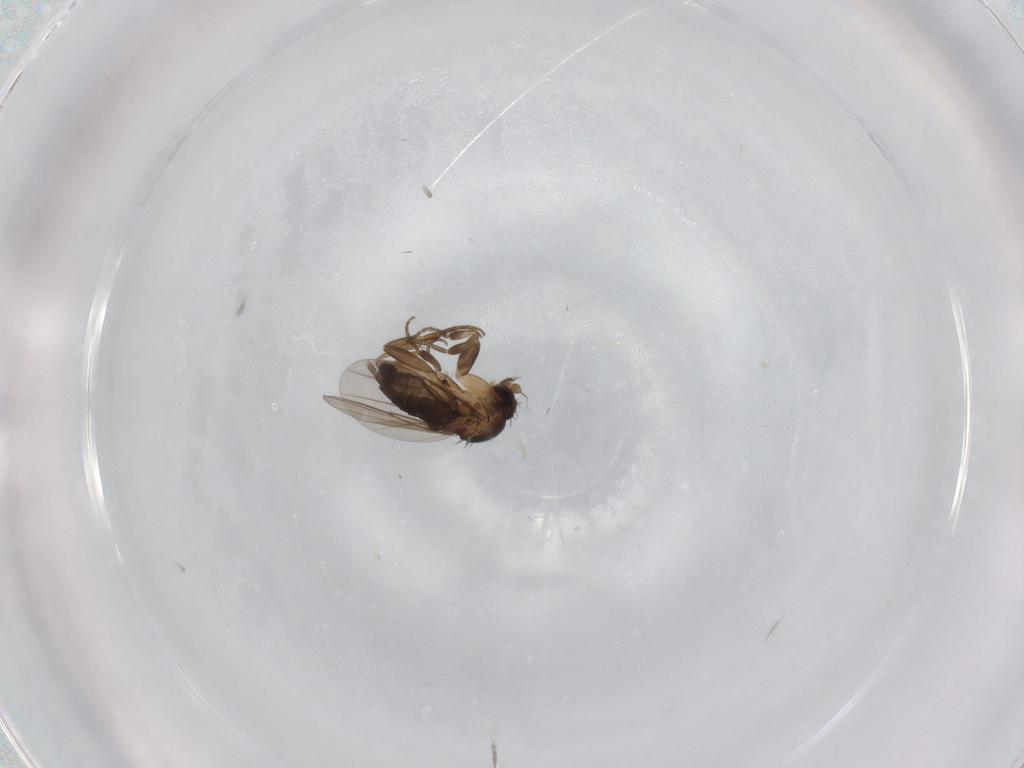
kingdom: Animalia
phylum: Arthropoda
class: Insecta
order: Diptera
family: Phoridae
